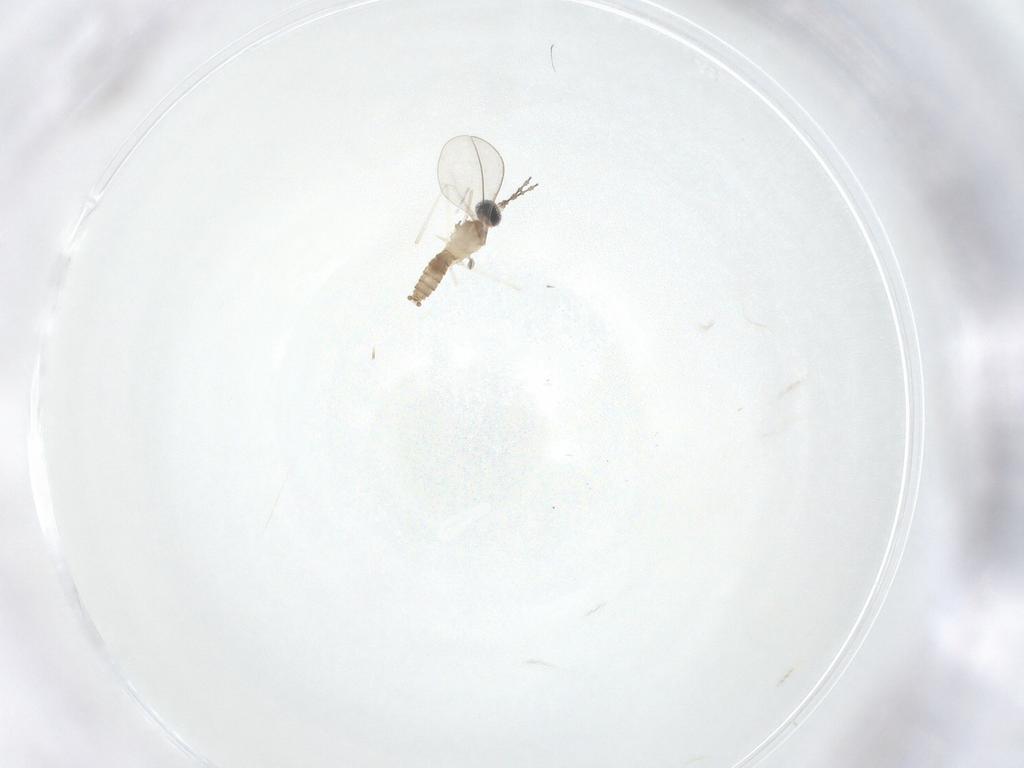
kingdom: Animalia
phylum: Arthropoda
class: Insecta
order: Diptera
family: Cecidomyiidae
